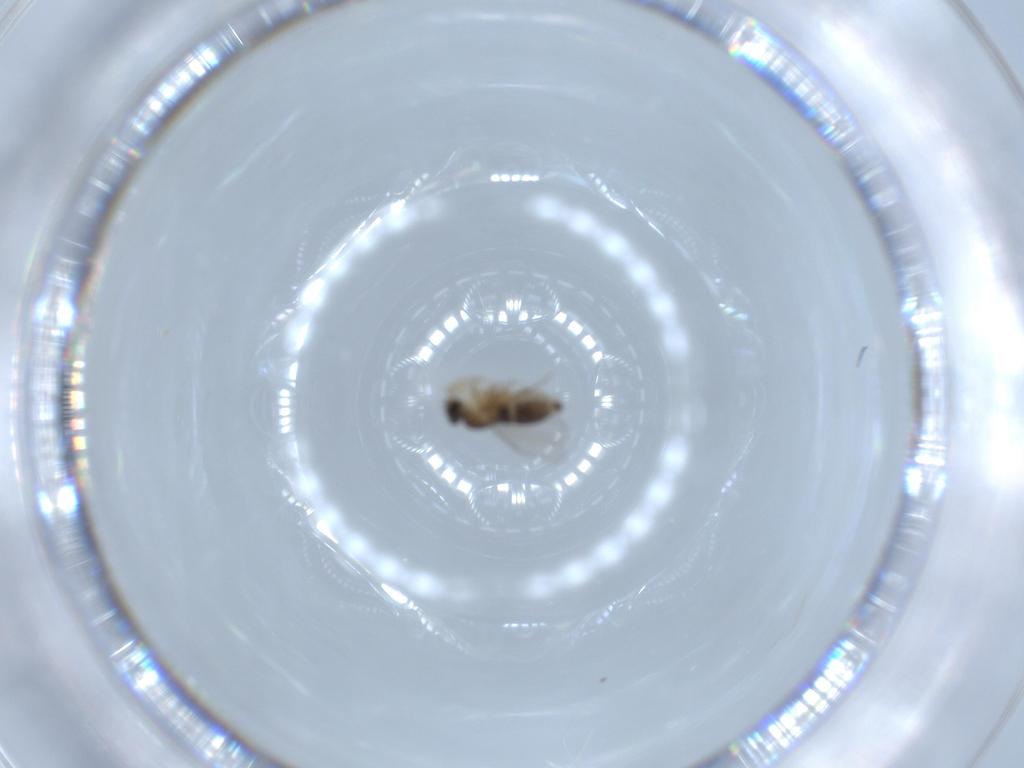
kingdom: Animalia
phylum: Arthropoda
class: Insecta
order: Diptera
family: Phoridae
